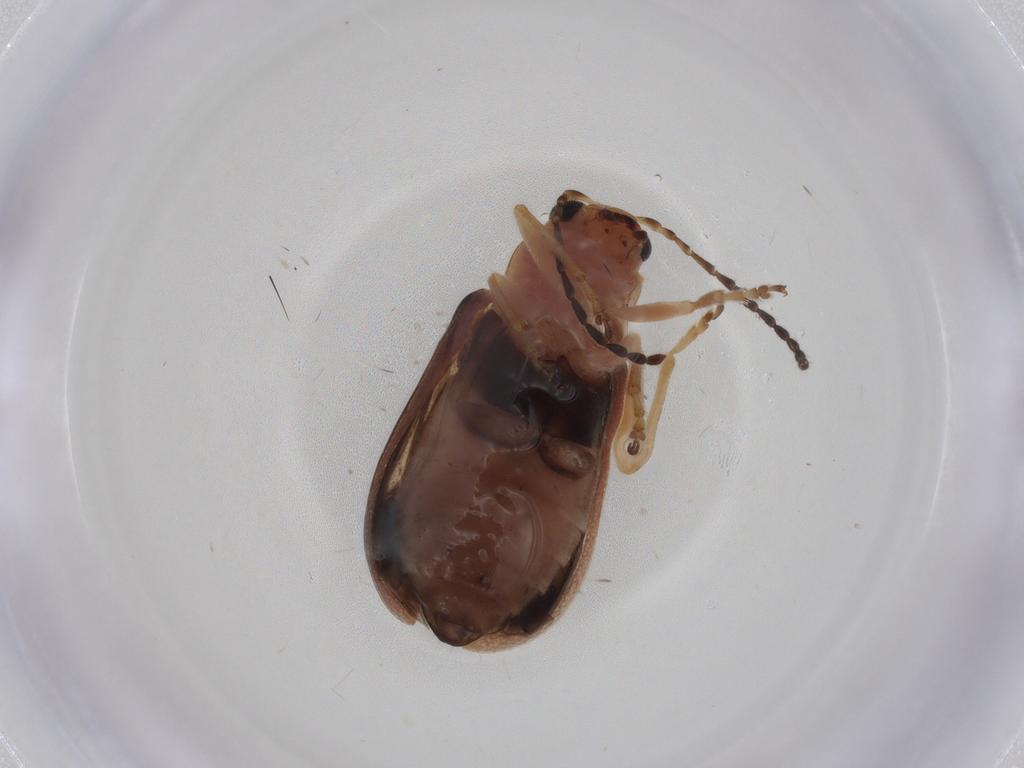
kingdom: Animalia
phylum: Arthropoda
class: Insecta
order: Coleoptera
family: Chrysomelidae
